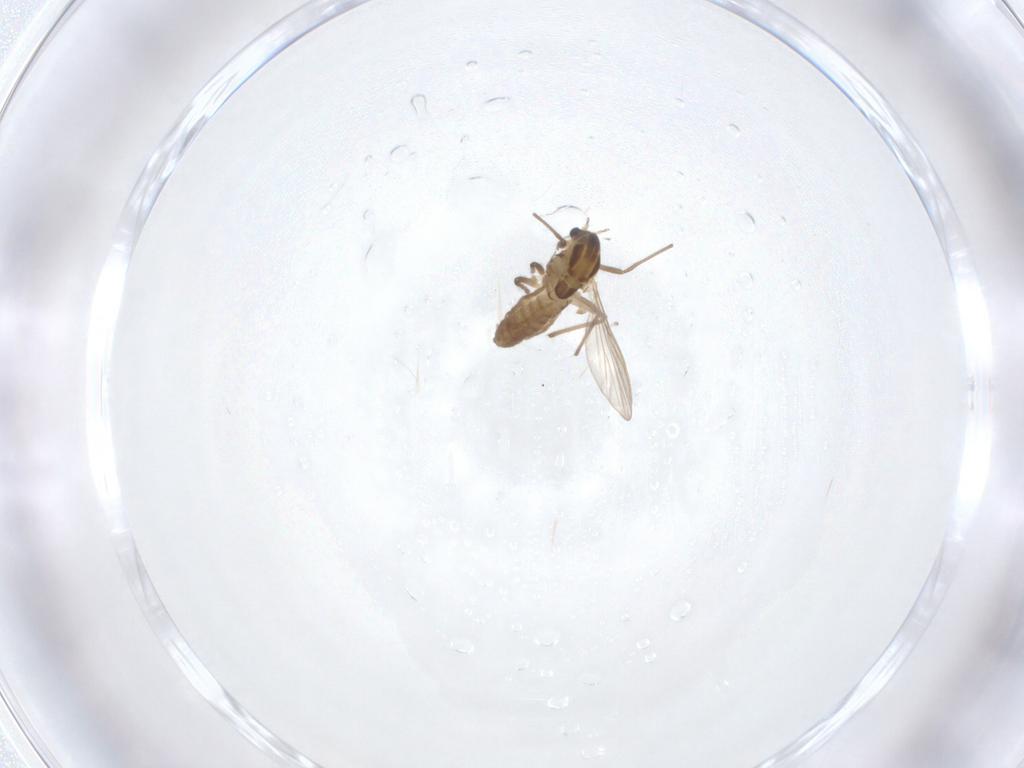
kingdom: Animalia
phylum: Arthropoda
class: Insecta
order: Diptera
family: Chironomidae
